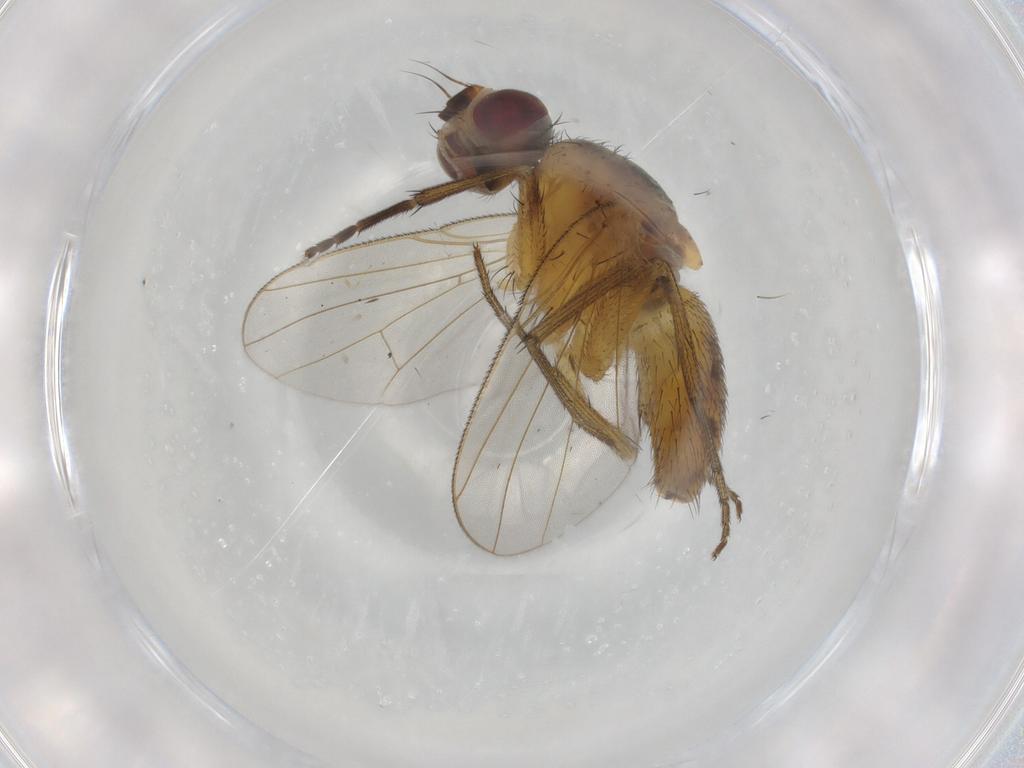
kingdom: Animalia
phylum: Arthropoda
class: Insecta
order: Diptera
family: Muscidae
